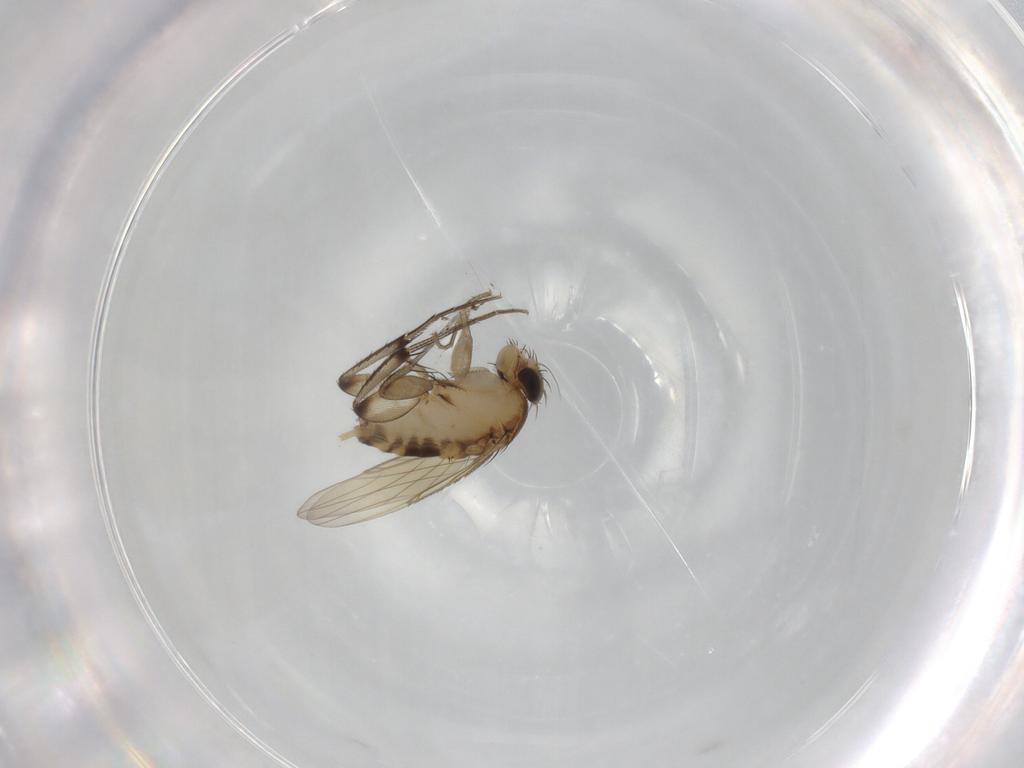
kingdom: Animalia
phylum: Arthropoda
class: Insecta
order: Diptera
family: Phoridae
